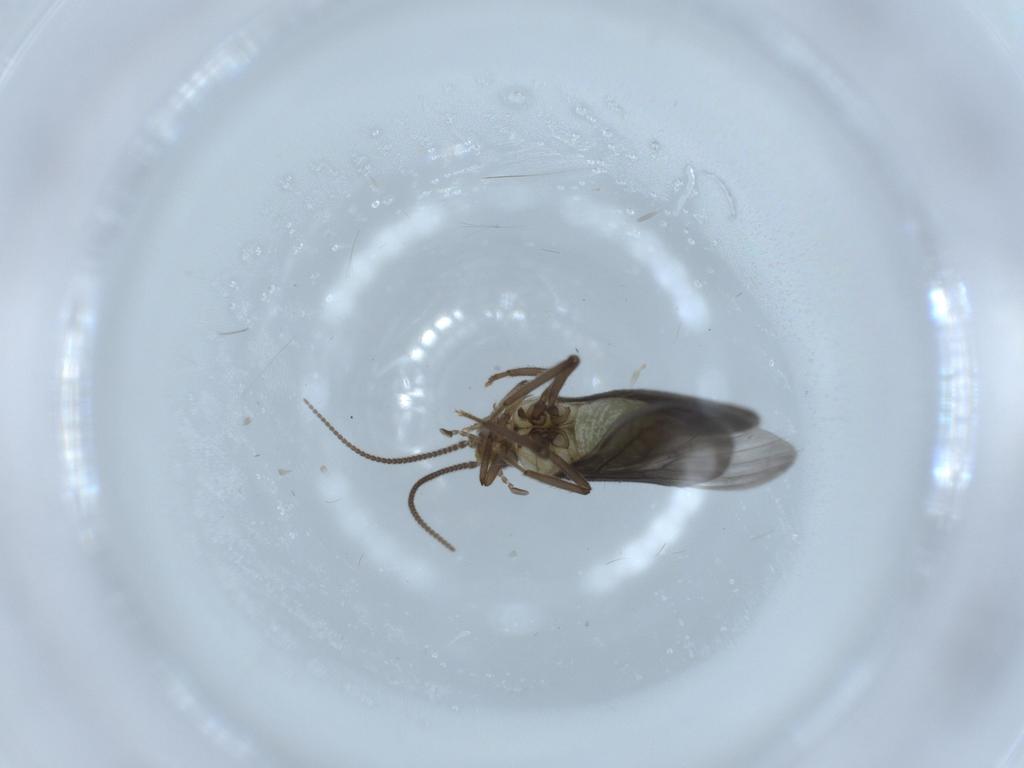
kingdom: Animalia
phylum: Arthropoda
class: Insecta
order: Neuroptera
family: Coniopterygidae
